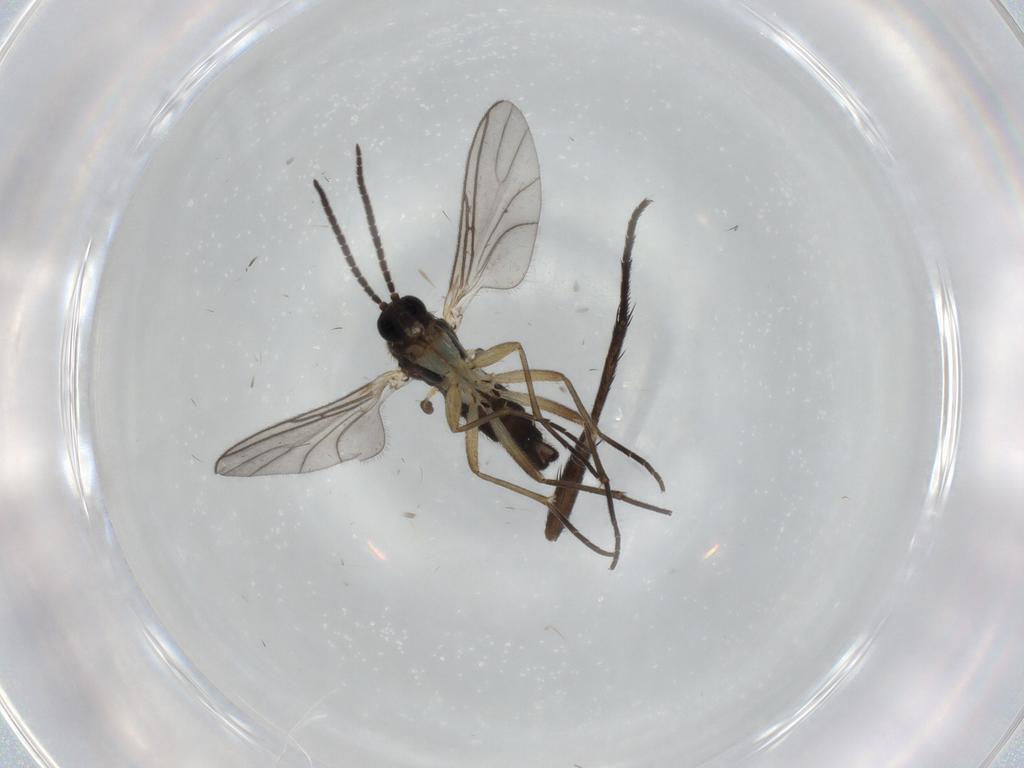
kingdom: Animalia
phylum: Arthropoda
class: Insecta
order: Diptera
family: Sciaridae
